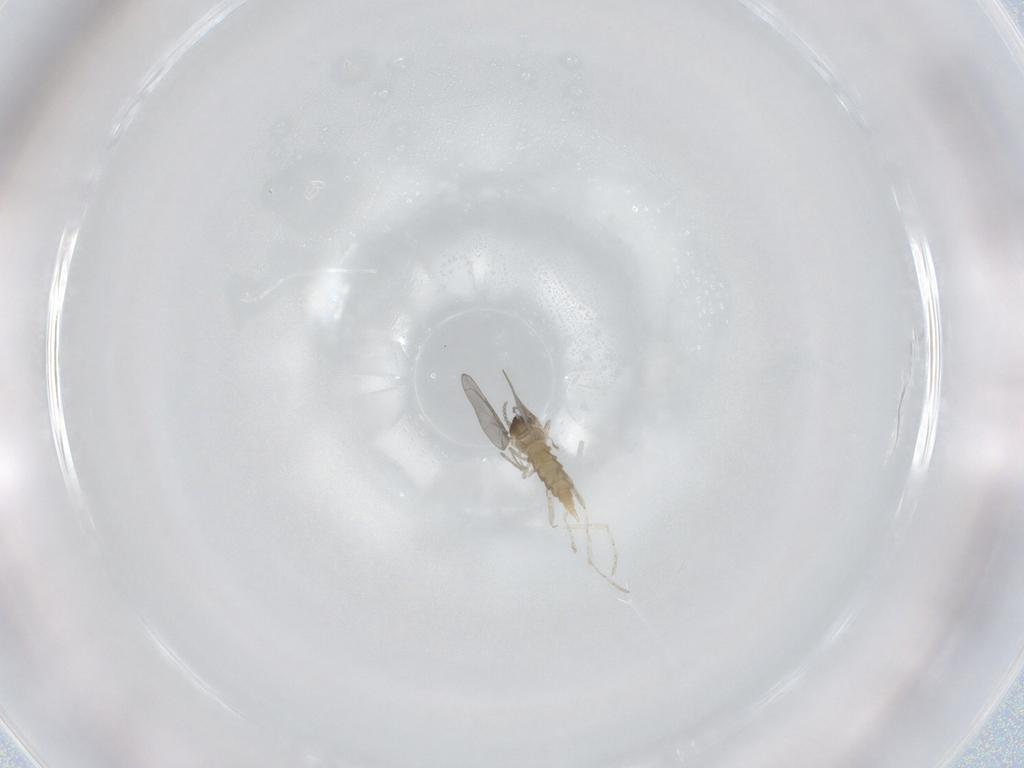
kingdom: Animalia
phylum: Arthropoda
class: Insecta
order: Diptera
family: Cecidomyiidae
